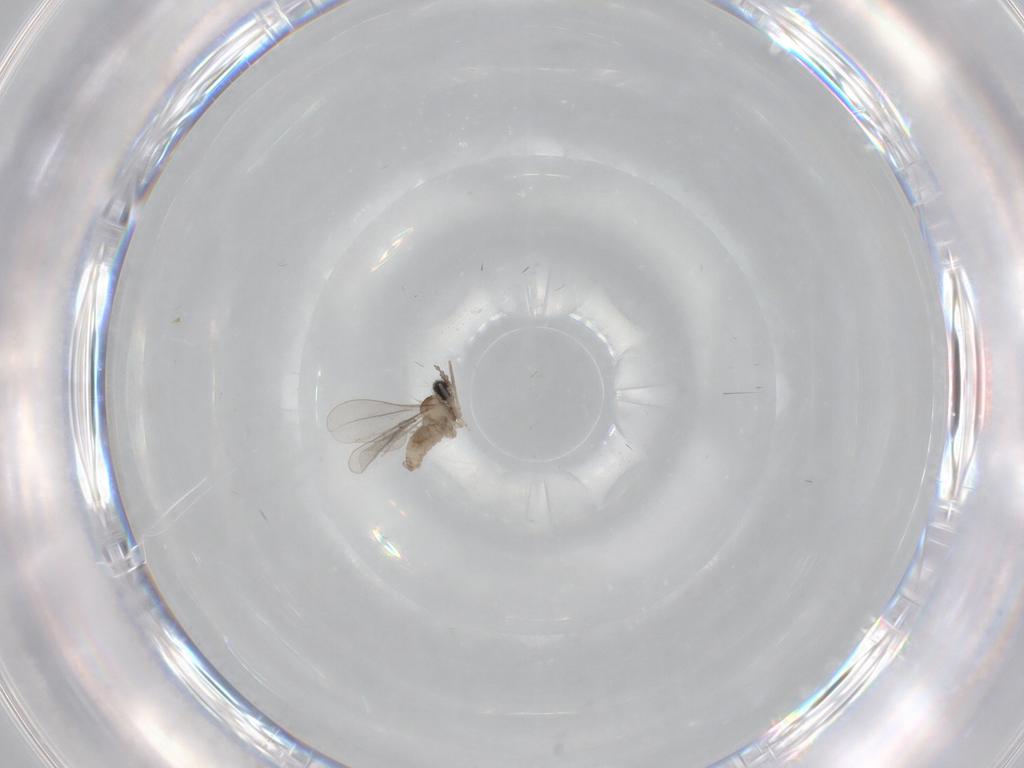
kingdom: Animalia
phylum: Arthropoda
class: Insecta
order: Diptera
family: Cecidomyiidae
